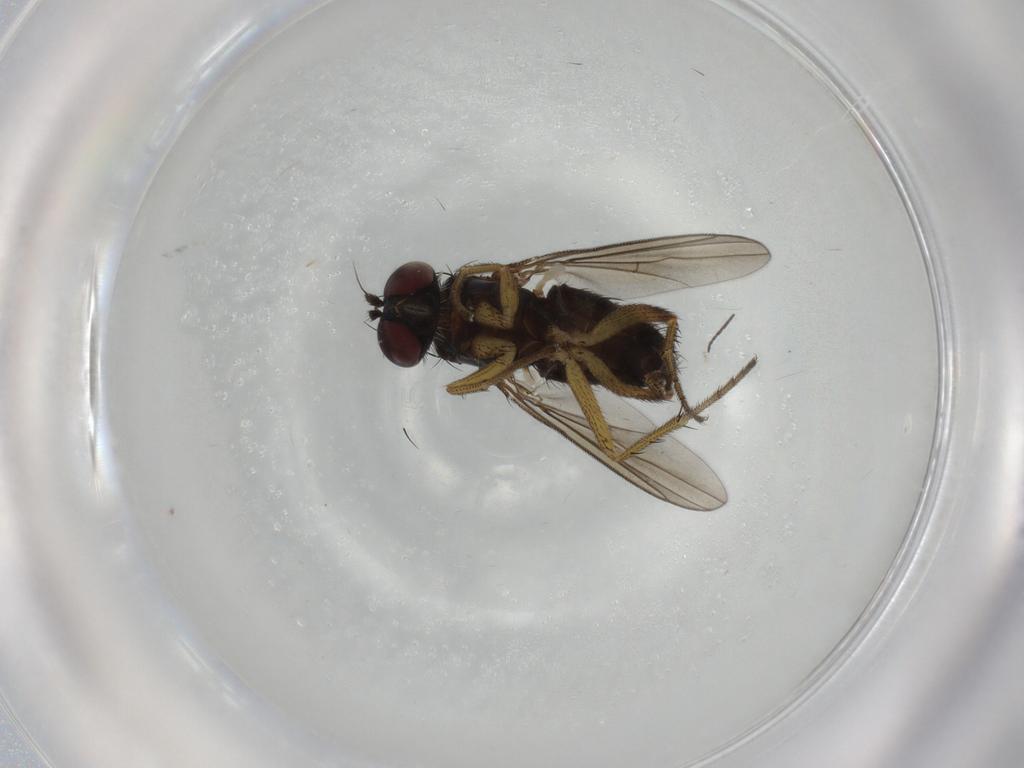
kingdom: Animalia
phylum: Arthropoda
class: Insecta
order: Diptera
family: Dolichopodidae
